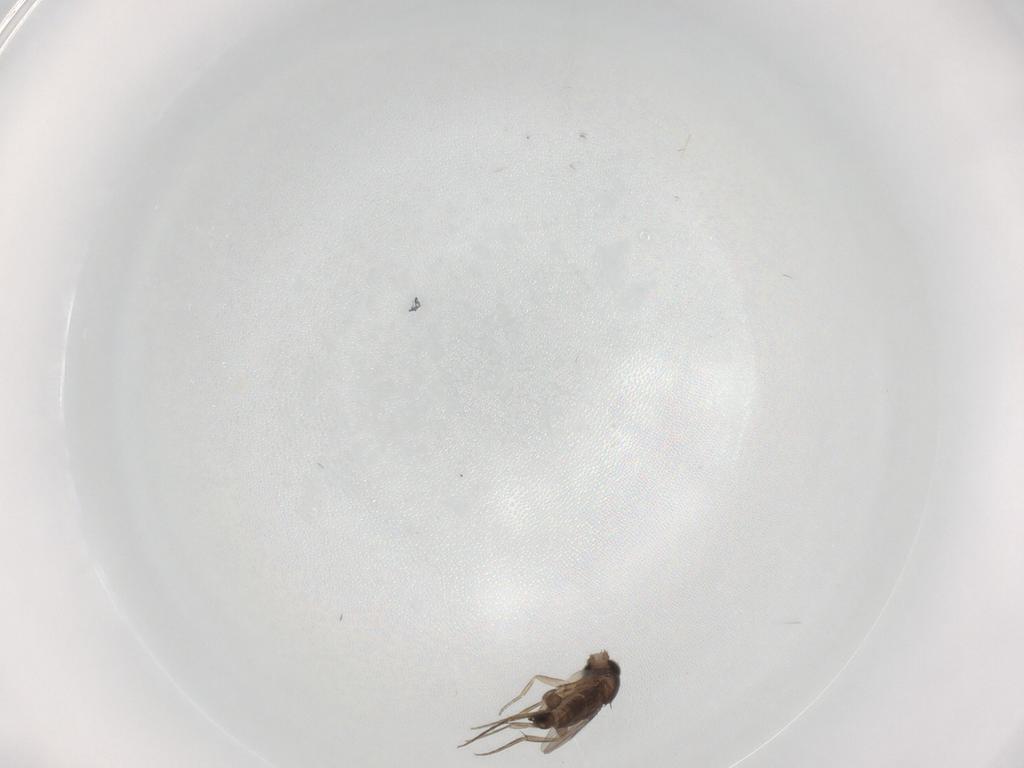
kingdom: Animalia
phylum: Arthropoda
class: Insecta
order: Diptera
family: Phoridae
